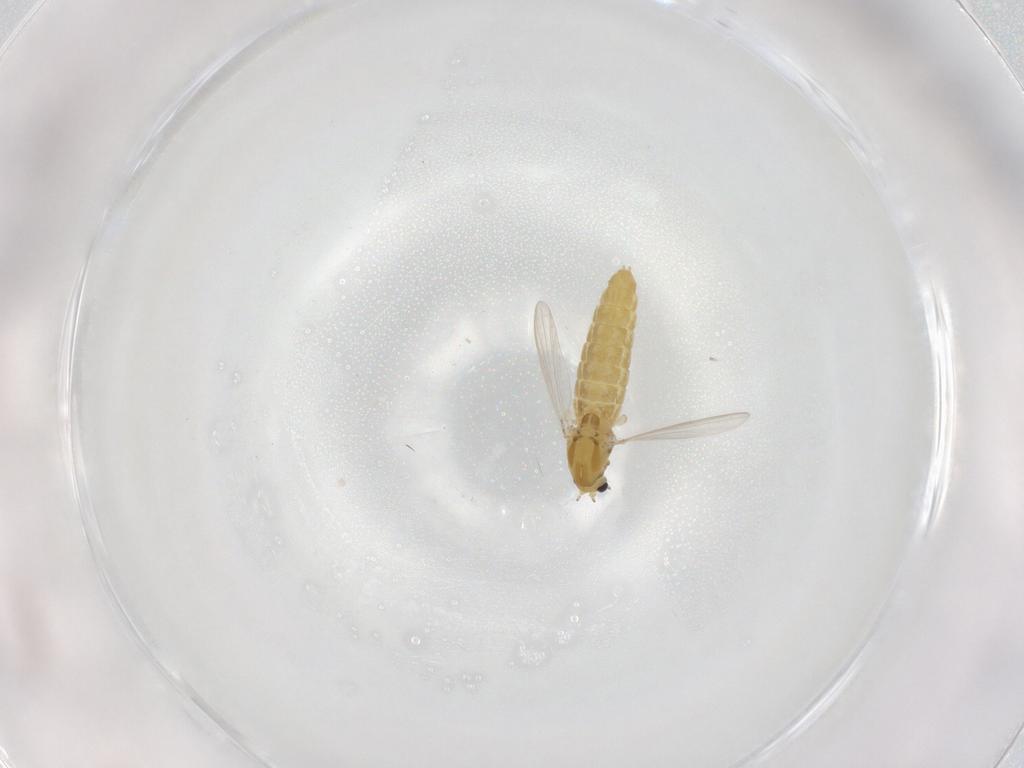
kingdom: Animalia
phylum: Arthropoda
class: Insecta
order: Diptera
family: Chironomidae
